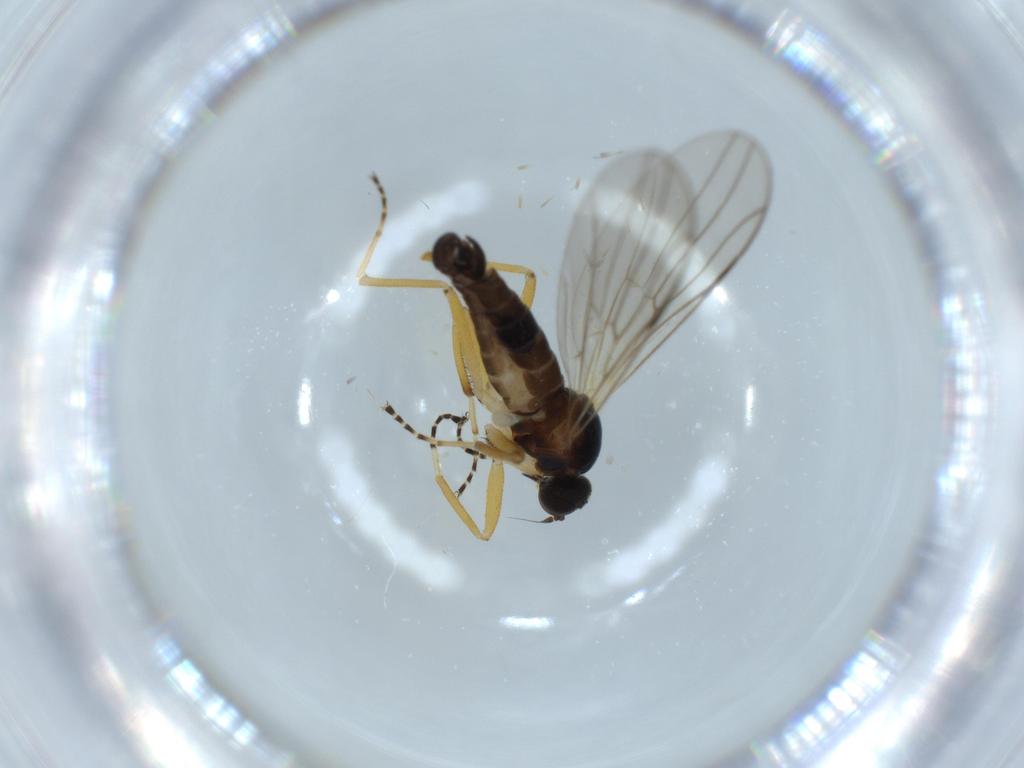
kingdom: Animalia
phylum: Arthropoda
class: Insecta
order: Diptera
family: Hybotidae
